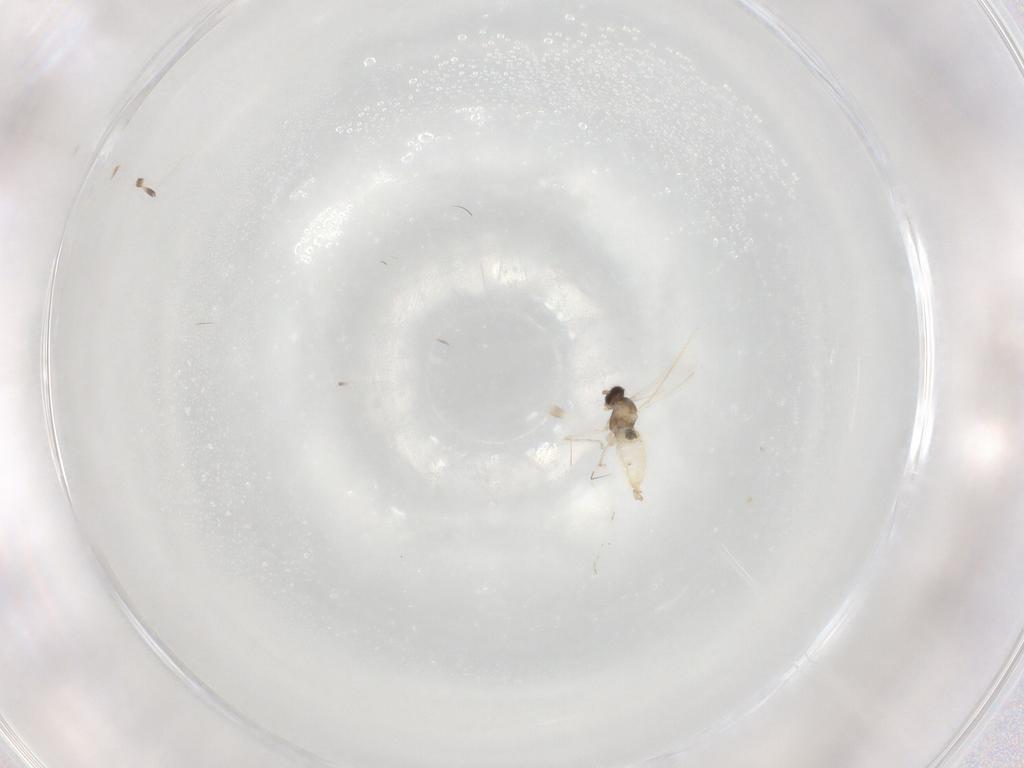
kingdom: Animalia
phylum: Arthropoda
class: Insecta
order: Diptera
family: Cecidomyiidae
